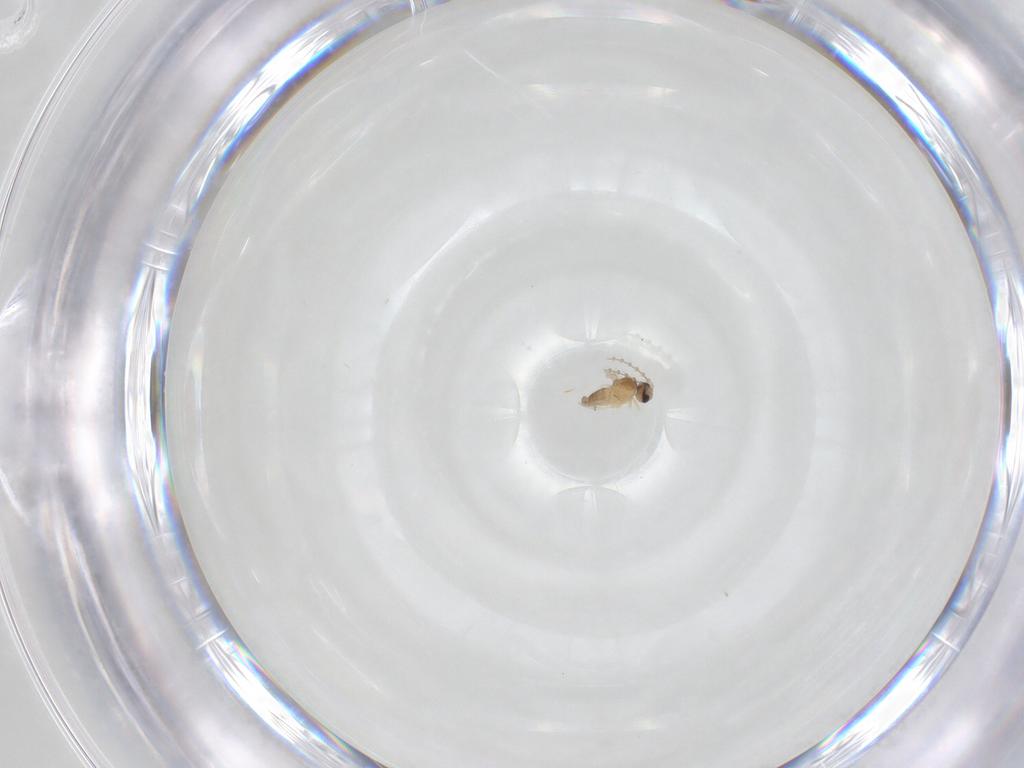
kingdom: Animalia
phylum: Arthropoda
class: Insecta
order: Diptera
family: Cecidomyiidae
